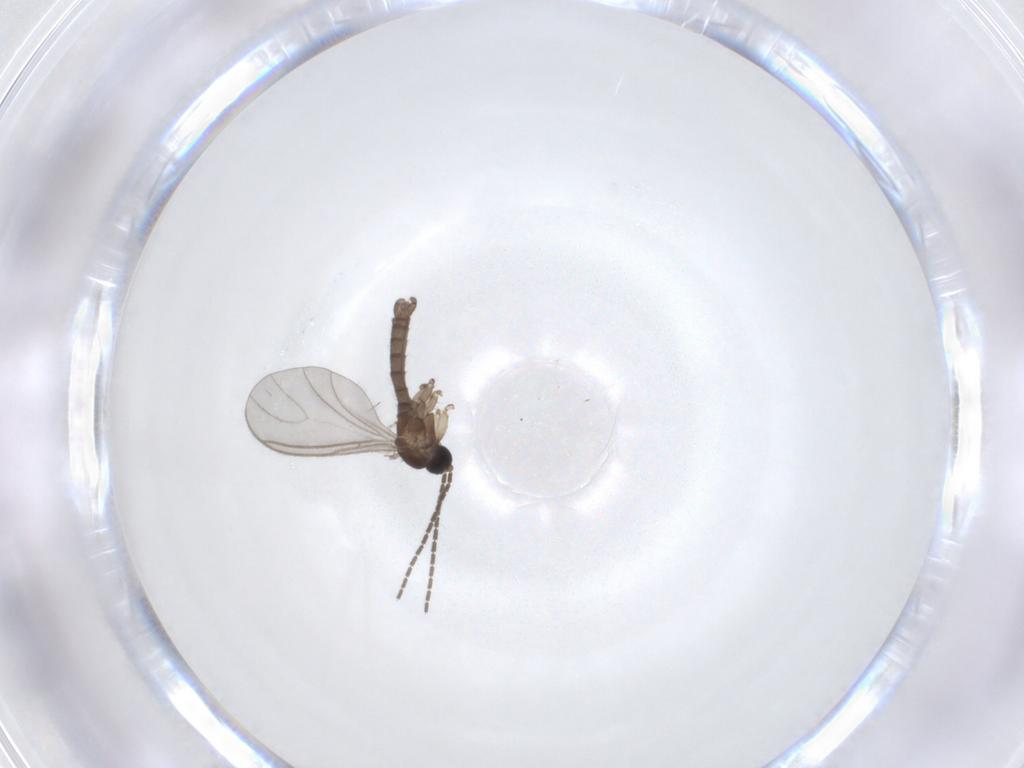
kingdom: Animalia
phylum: Arthropoda
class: Insecta
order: Diptera
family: Sciaridae
